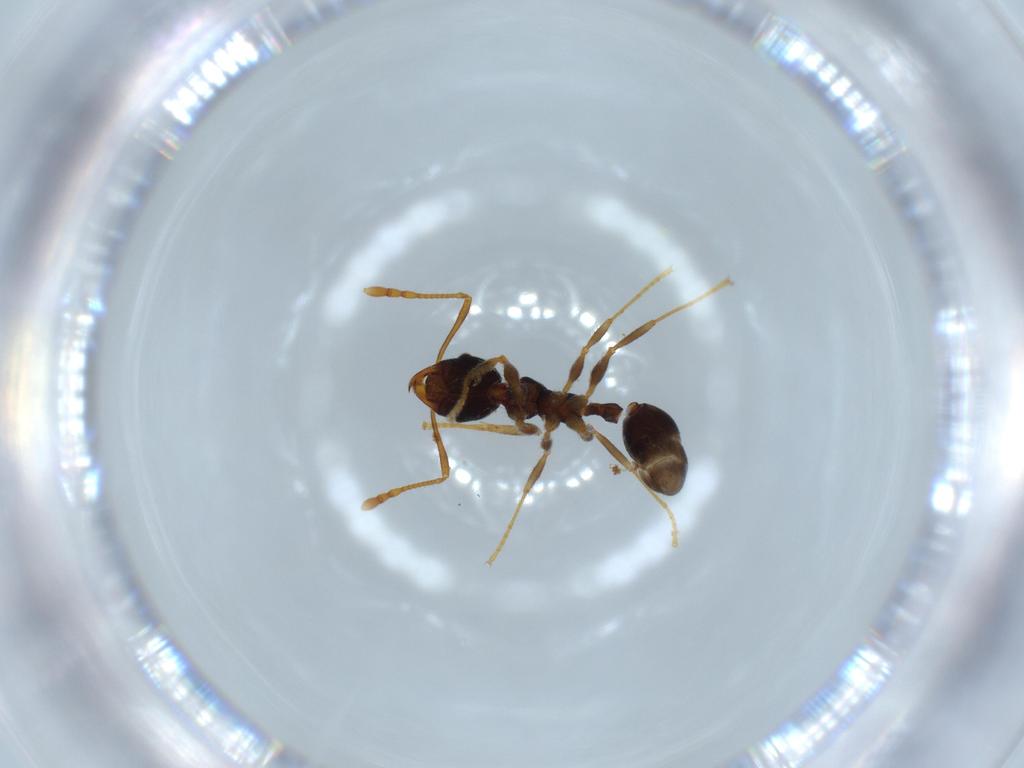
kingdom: Animalia
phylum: Arthropoda
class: Insecta
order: Hymenoptera
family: Formicidae
